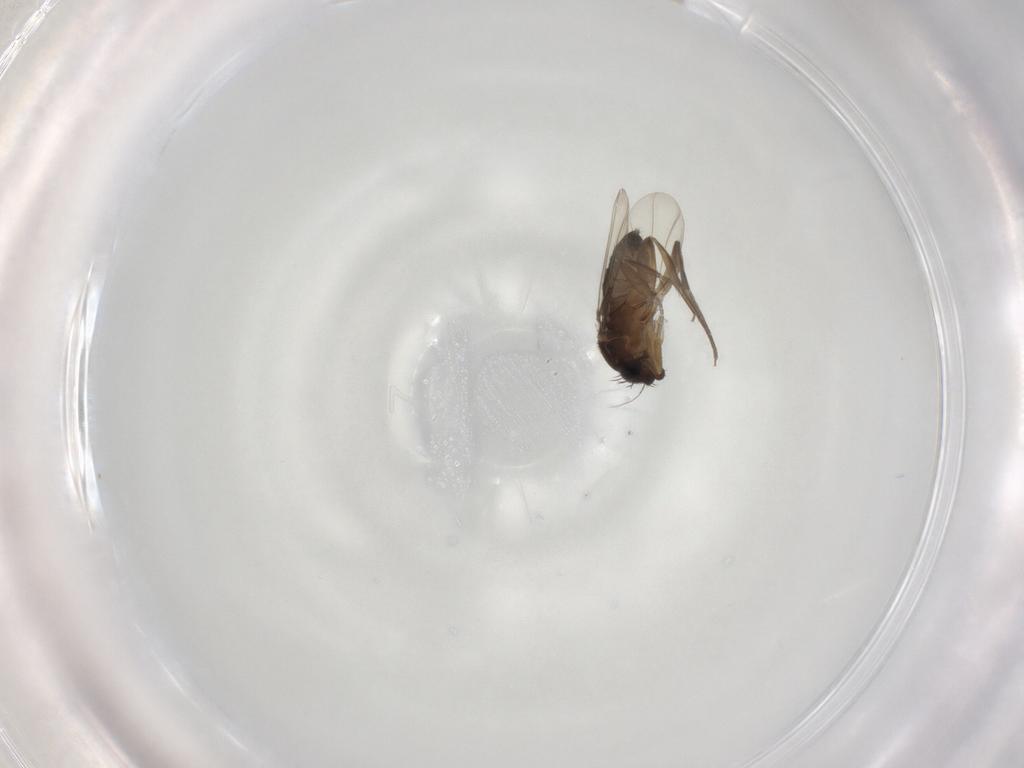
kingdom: Animalia
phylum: Arthropoda
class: Insecta
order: Diptera
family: Phoridae
